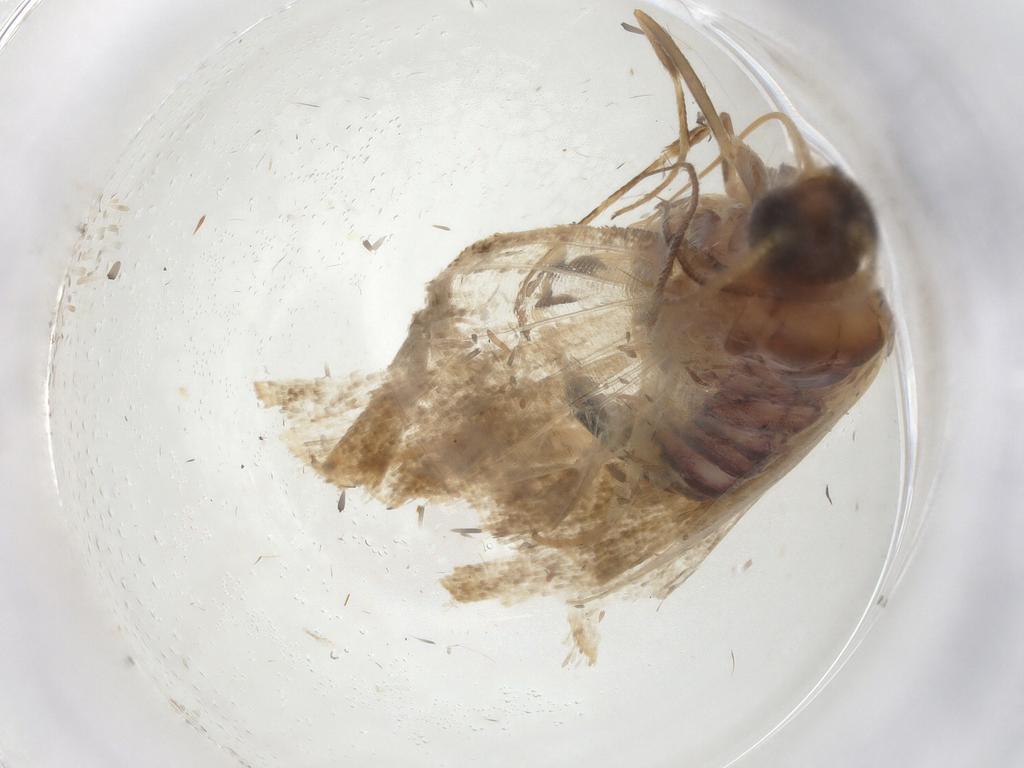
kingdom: Animalia
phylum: Arthropoda
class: Insecta
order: Lepidoptera
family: Crambidae
